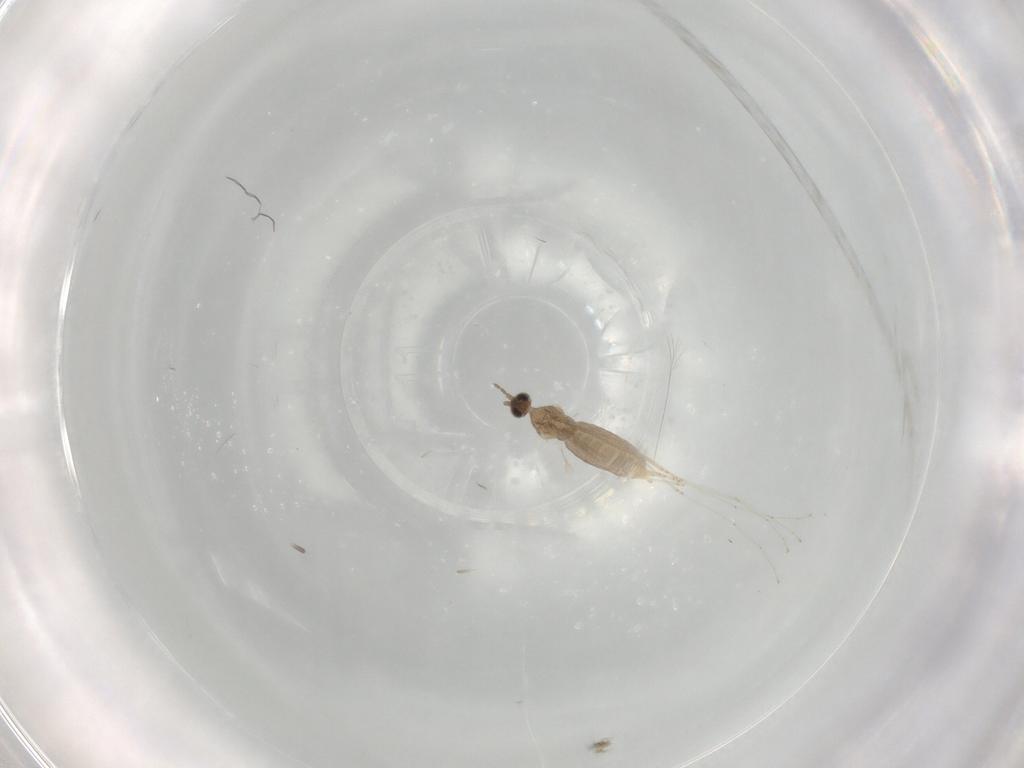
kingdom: Animalia
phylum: Arthropoda
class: Insecta
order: Diptera
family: Cecidomyiidae
